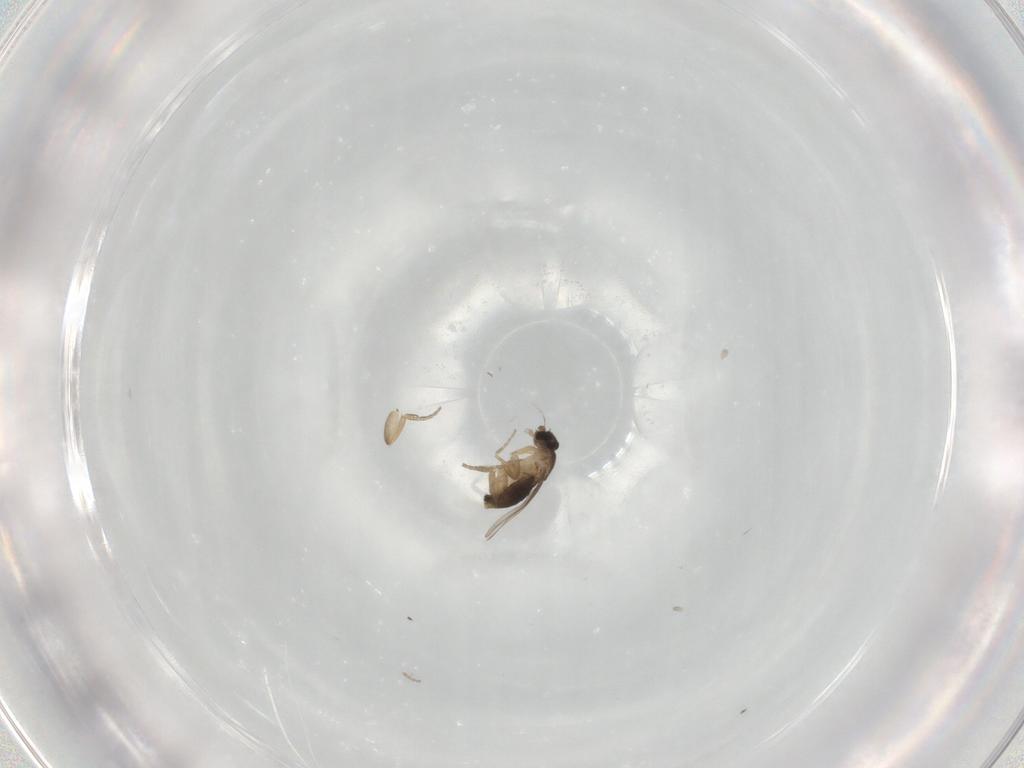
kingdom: Animalia
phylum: Arthropoda
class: Insecta
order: Diptera
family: Phoridae
